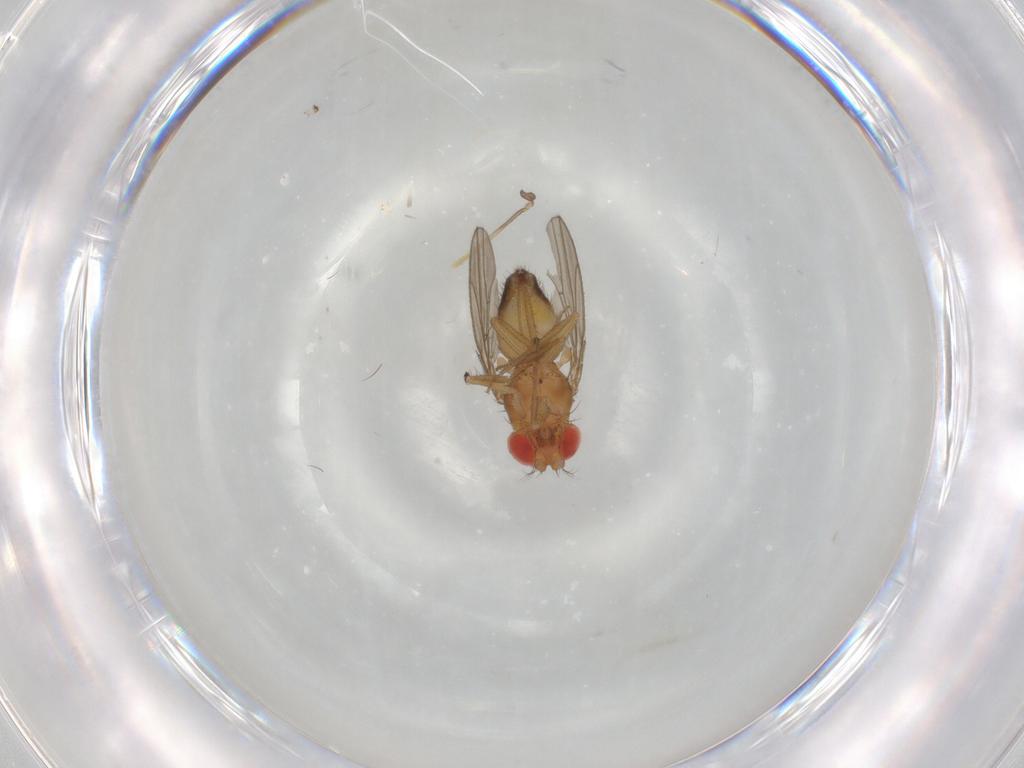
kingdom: Animalia
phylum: Arthropoda
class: Insecta
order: Diptera
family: Drosophilidae
